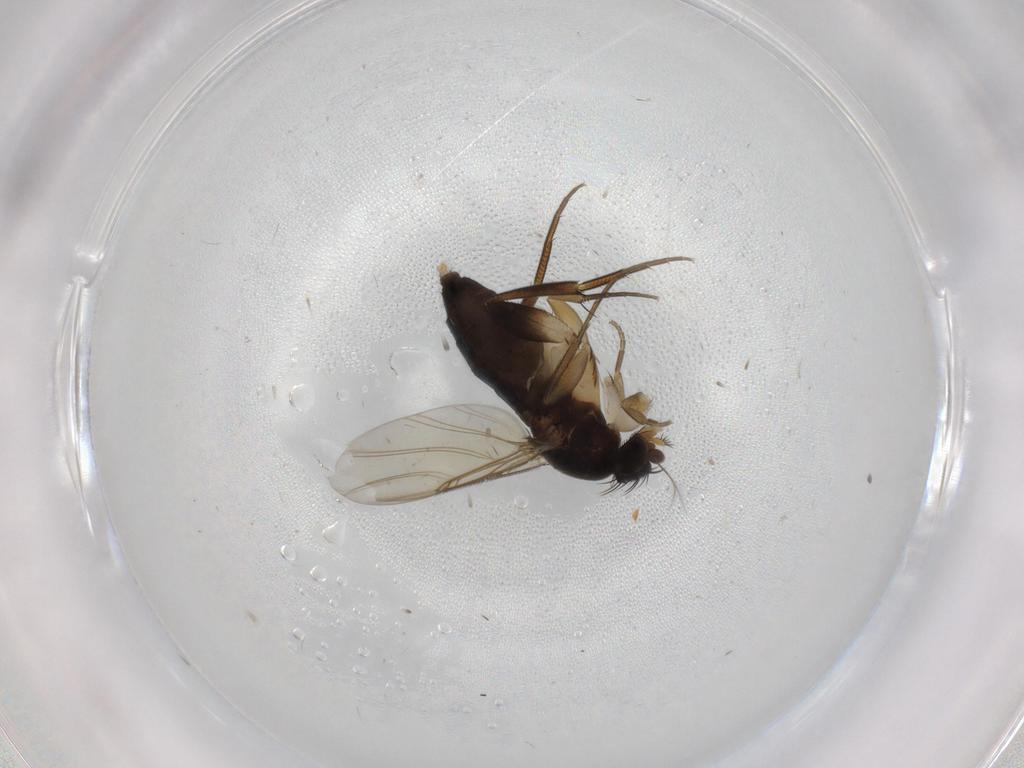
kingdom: Animalia
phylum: Arthropoda
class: Insecta
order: Diptera
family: Phoridae
